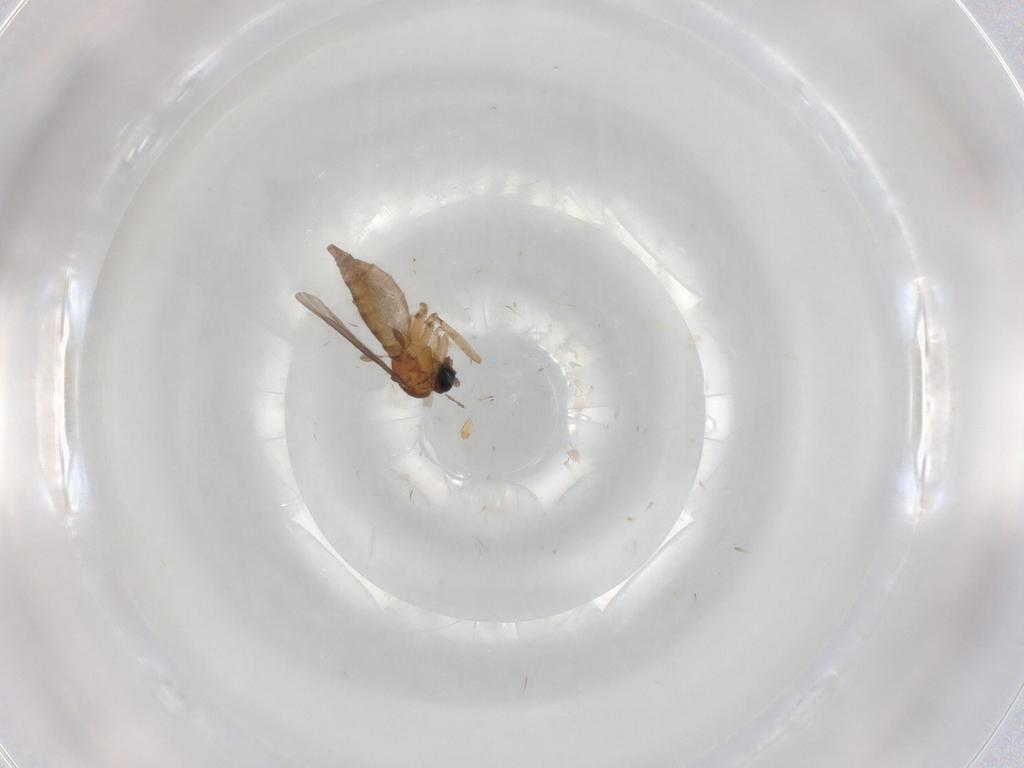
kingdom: Animalia
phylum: Arthropoda
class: Insecta
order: Diptera
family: Sciaridae
